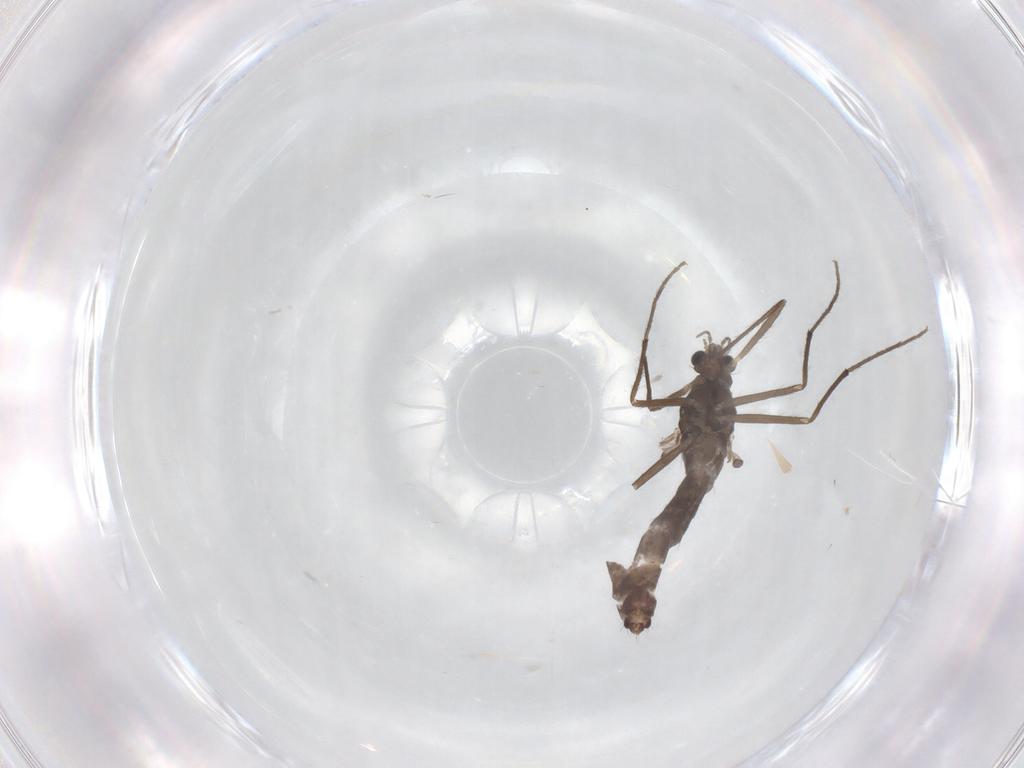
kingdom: Animalia
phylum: Arthropoda
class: Insecta
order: Diptera
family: Chironomidae
